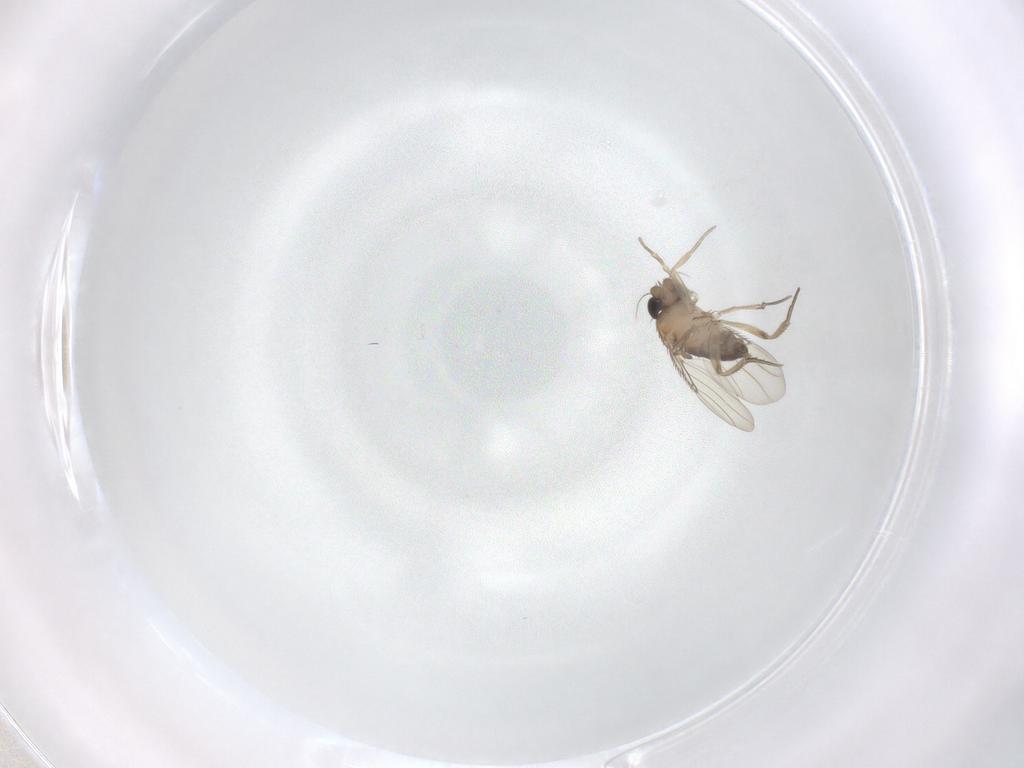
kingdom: Animalia
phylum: Arthropoda
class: Insecta
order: Diptera
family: Phoridae
